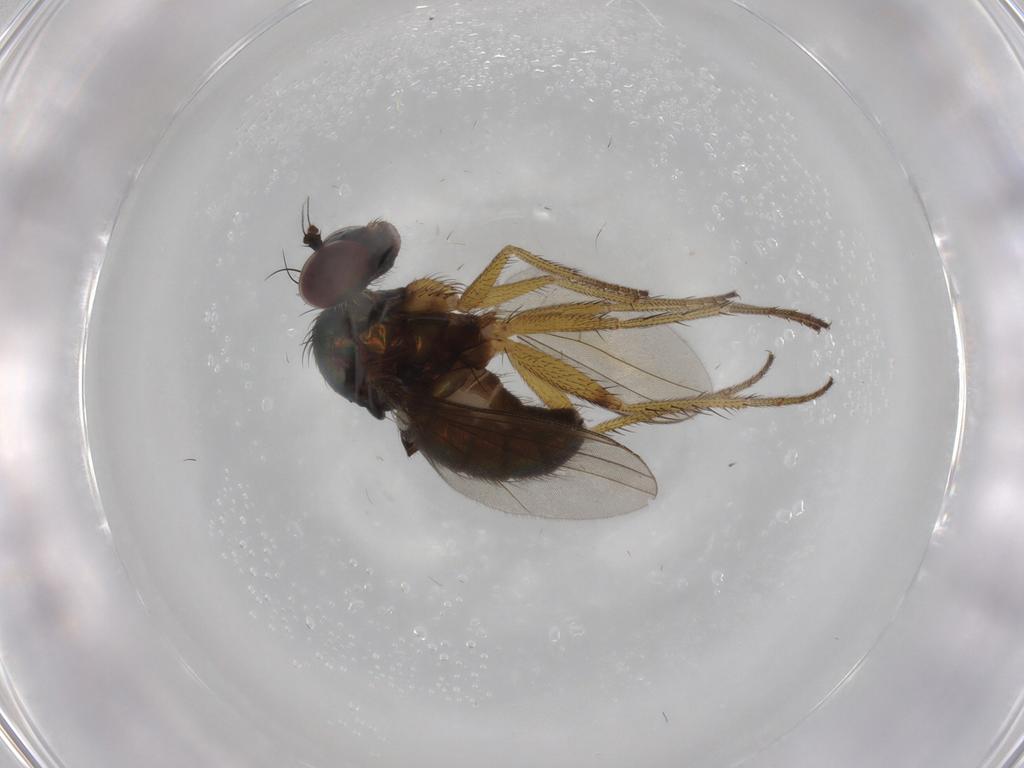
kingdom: Animalia
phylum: Arthropoda
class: Insecta
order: Diptera
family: Dolichopodidae
